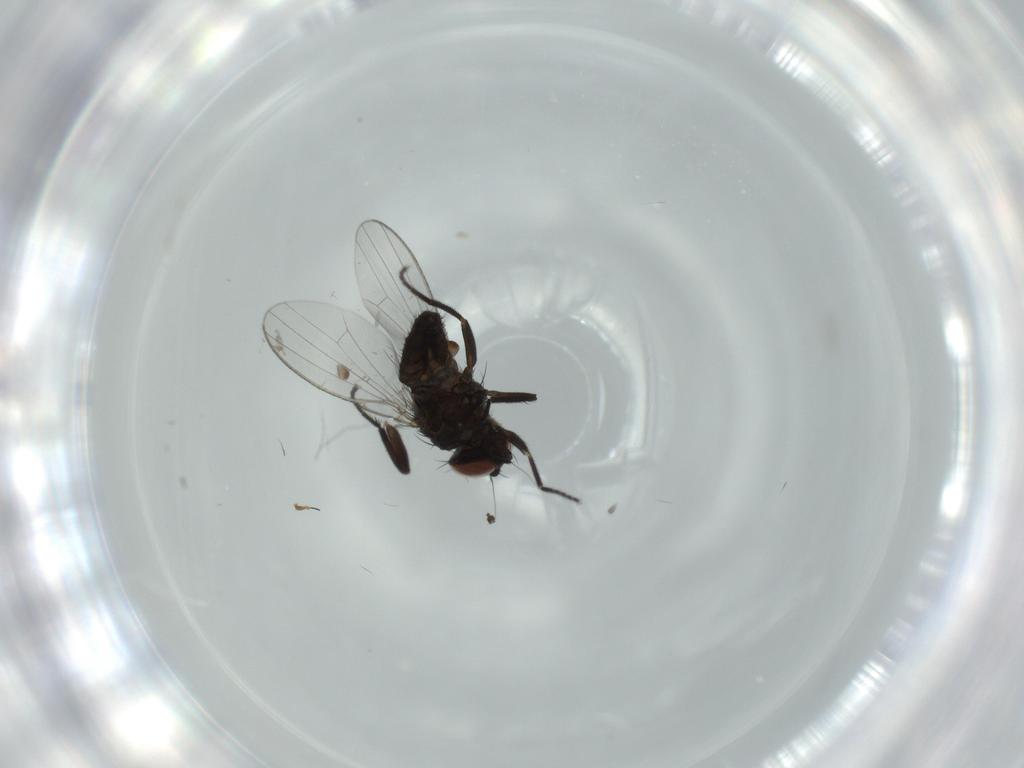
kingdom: Animalia
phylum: Arthropoda
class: Insecta
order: Diptera
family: Milichiidae
